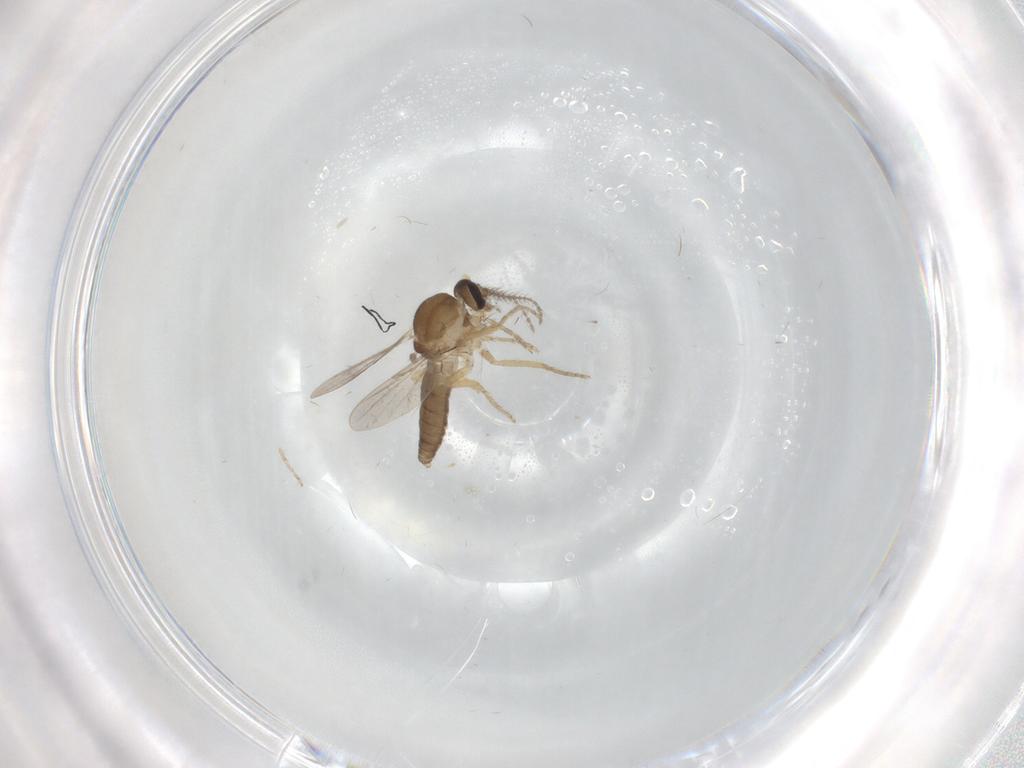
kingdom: Animalia
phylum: Arthropoda
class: Insecta
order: Diptera
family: Ceratopogonidae
